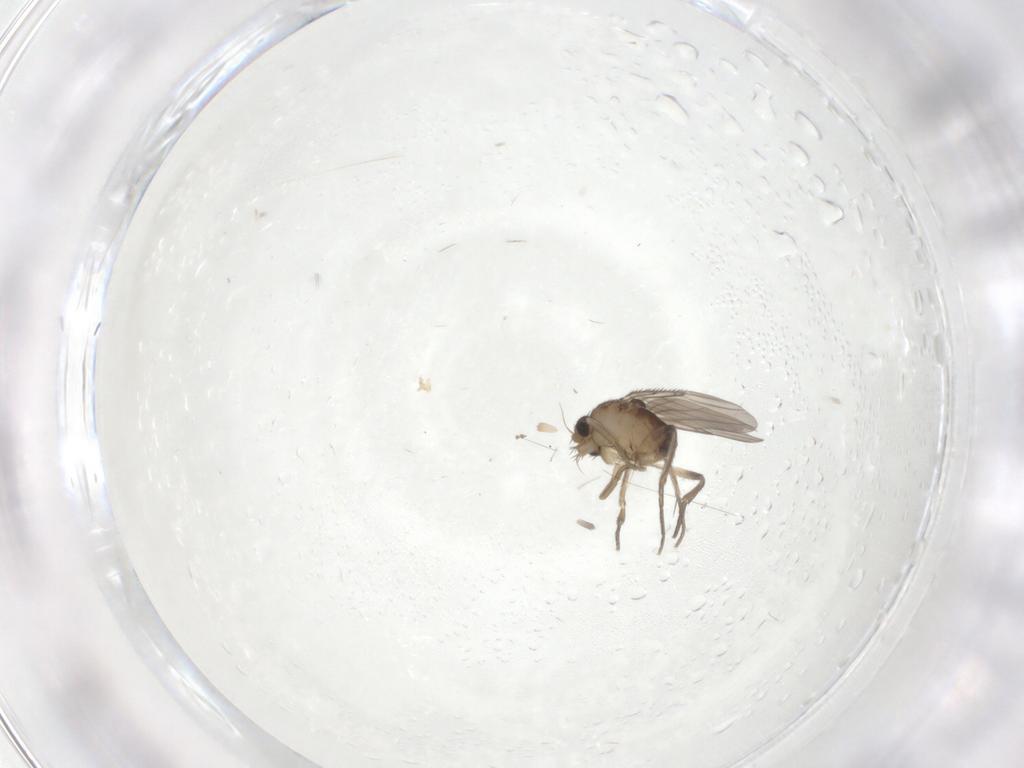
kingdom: Animalia
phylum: Arthropoda
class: Insecta
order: Diptera
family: Phoridae
